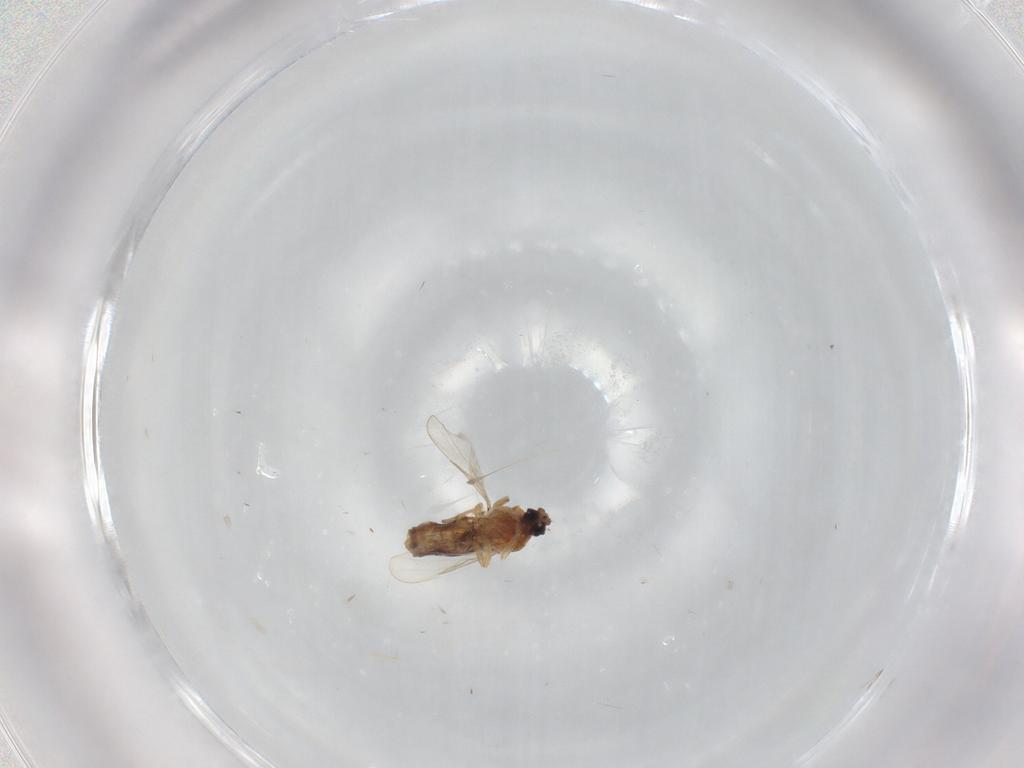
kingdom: Animalia
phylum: Arthropoda
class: Insecta
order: Diptera
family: Ceratopogonidae
